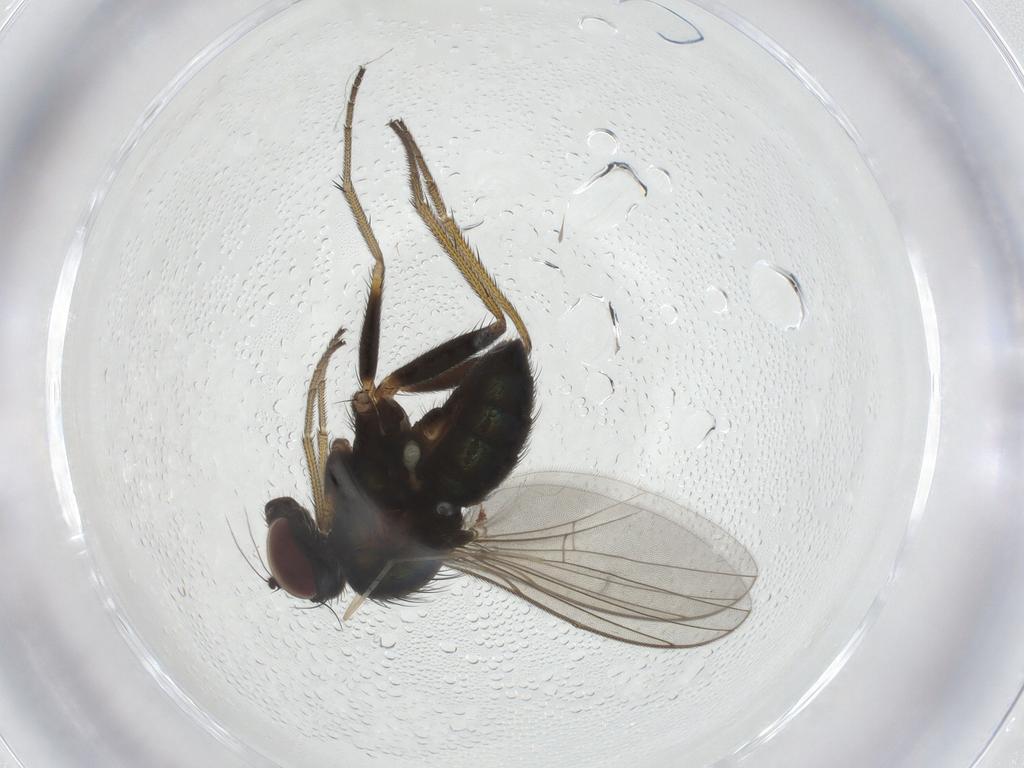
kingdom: Animalia
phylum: Arthropoda
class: Insecta
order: Diptera
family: Dolichopodidae
